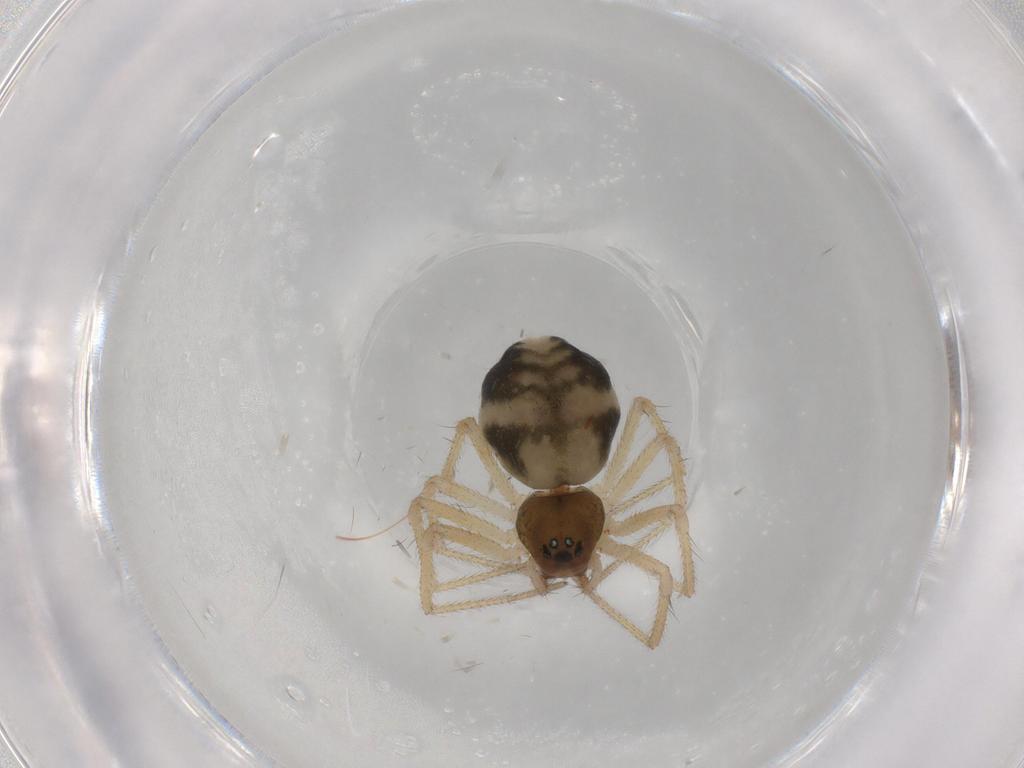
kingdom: Animalia
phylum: Arthropoda
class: Arachnida
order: Araneae
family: Linyphiidae
